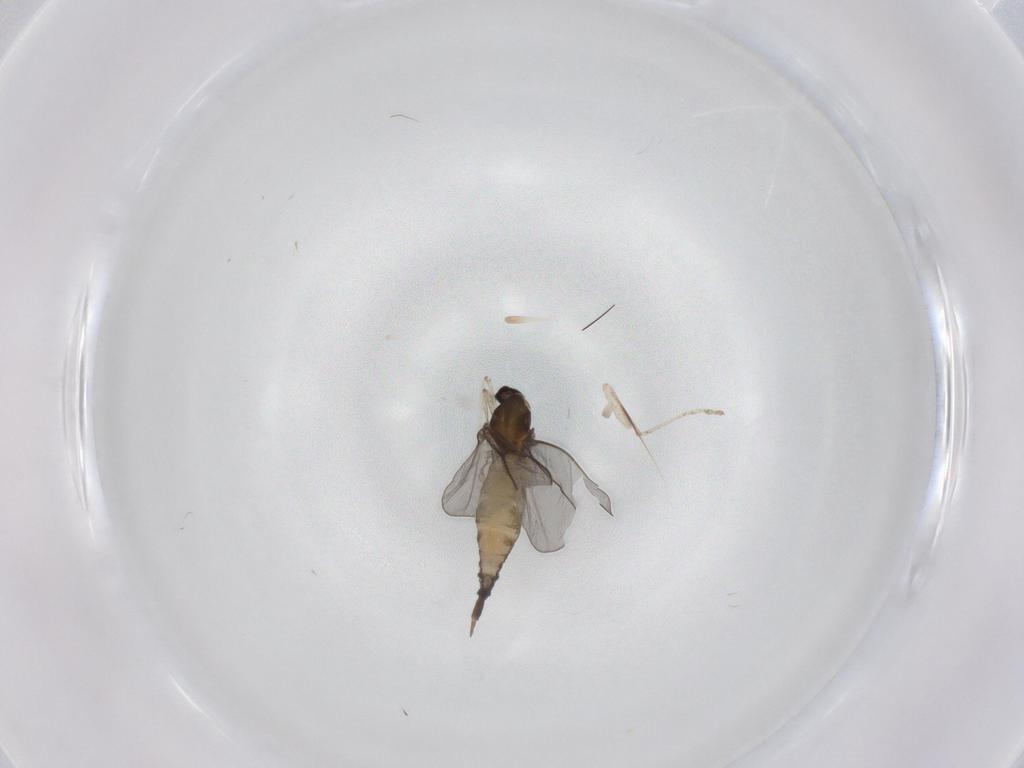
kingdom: Animalia
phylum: Arthropoda
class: Insecta
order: Diptera
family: Cecidomyiidae
